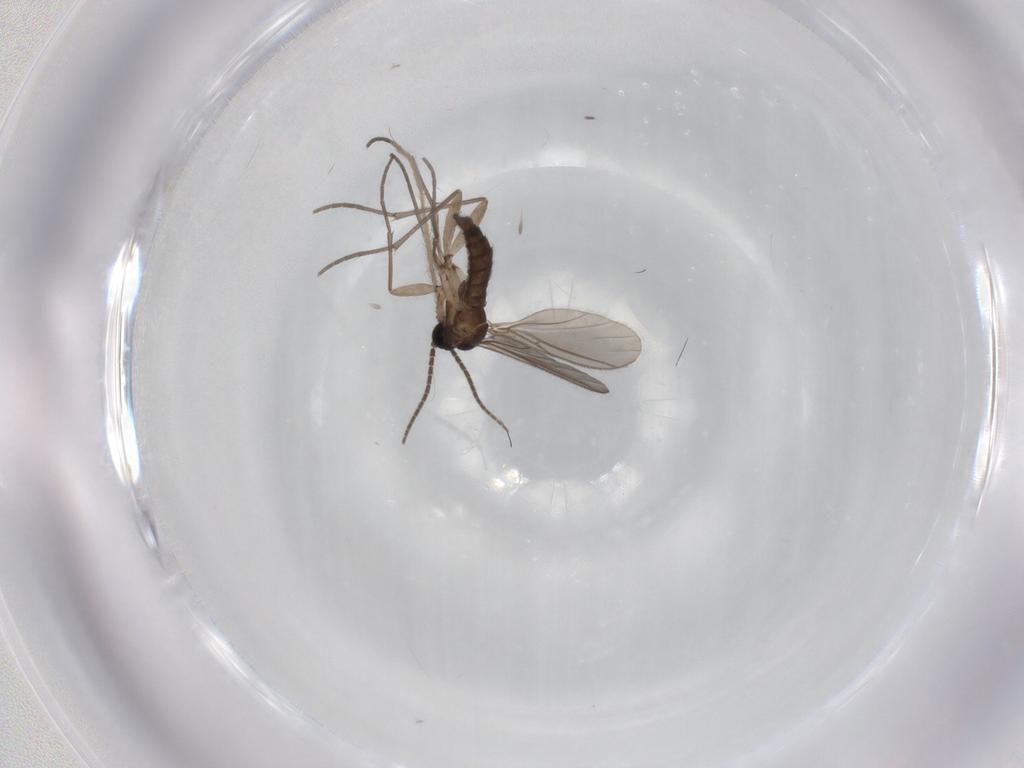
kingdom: Animalia
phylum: Arthropoda
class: Insecta
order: Diptera
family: Sciaridae
